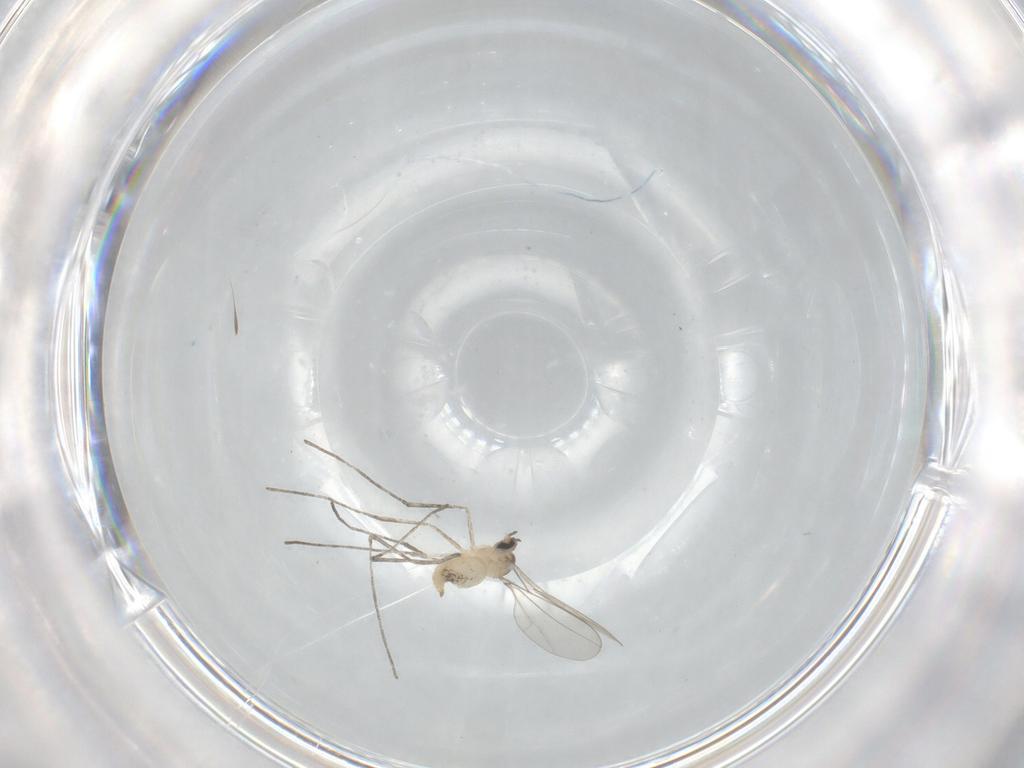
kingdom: Animalia
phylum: Arthropoda
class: Insecta
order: Diptera
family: Cecidomyiidae
